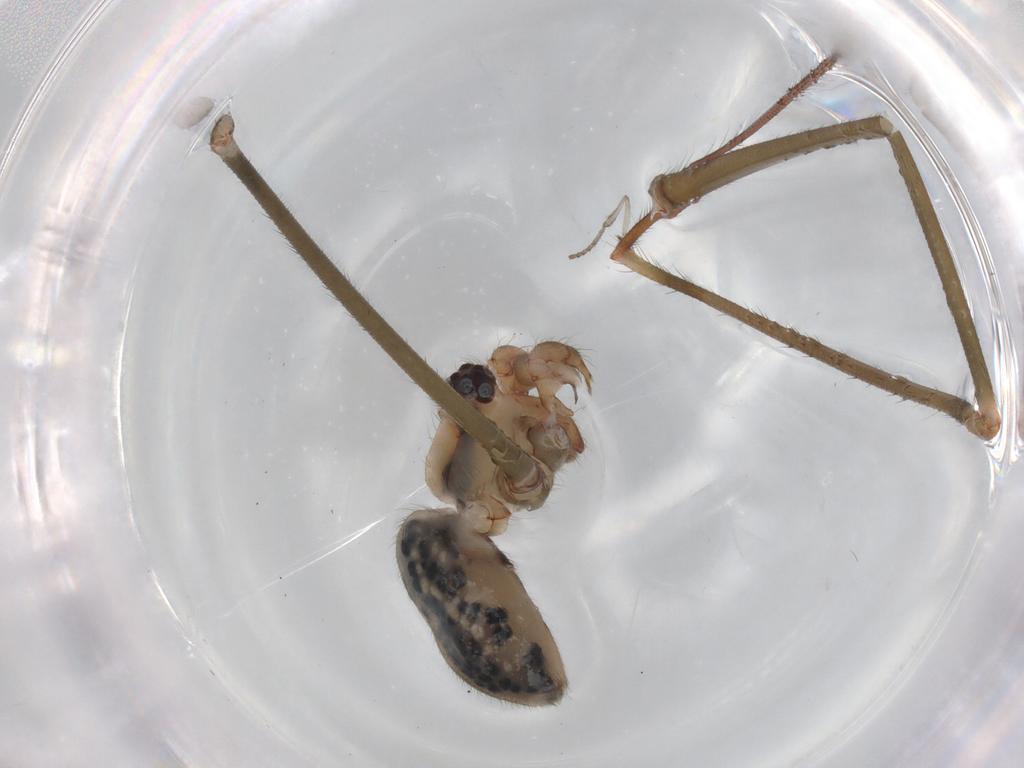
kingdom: Animalia
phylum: Arthropoda
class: Arachnida
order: Araneae
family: Pholcidae
